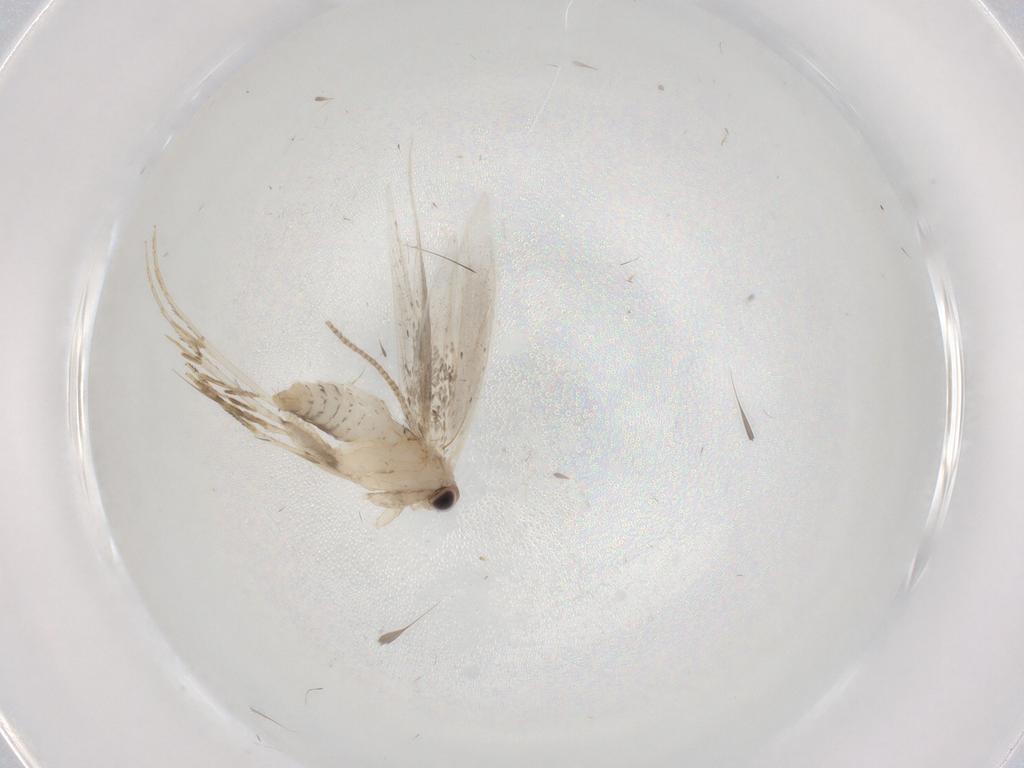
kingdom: Animalia
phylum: Arthropoda
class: Insecta
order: Lepidoptera
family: Tineidae
